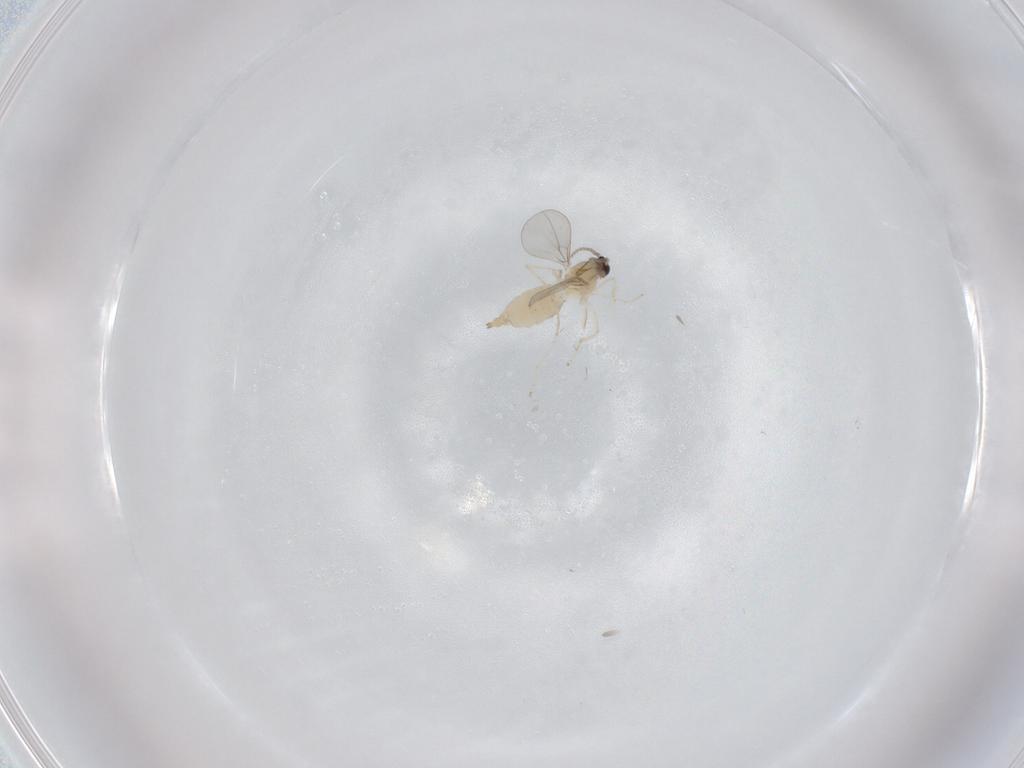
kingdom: Animalia
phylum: Arthropoda
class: Insecta
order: Diptera
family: Cecidomyiidae
